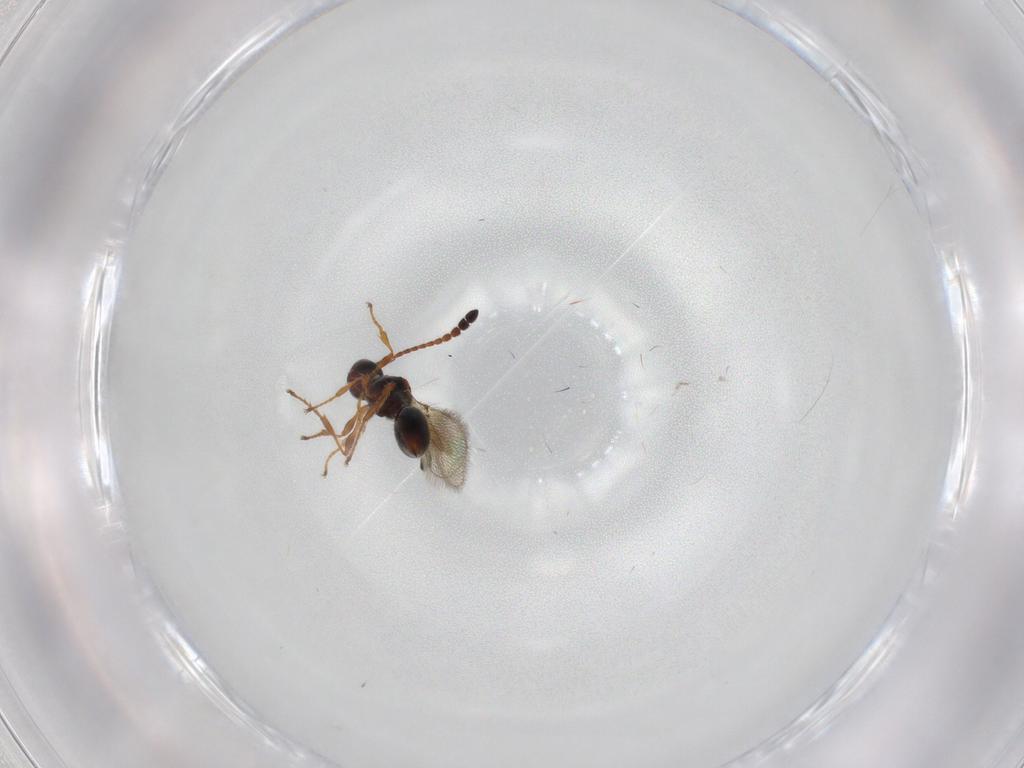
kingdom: Animalia
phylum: Arthropoda
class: Insecta
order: Hymenoptera
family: Diapriidae
